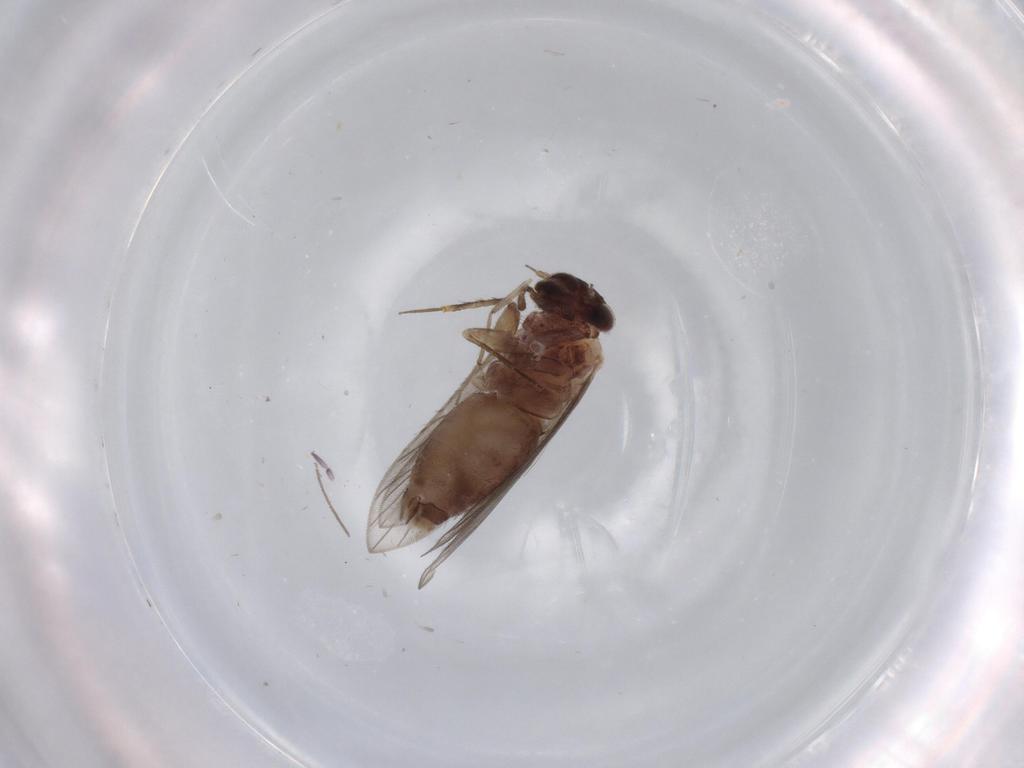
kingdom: Animalia
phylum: Arthropoda
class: Insecta
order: Psocodea
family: Lepidopsocidae
